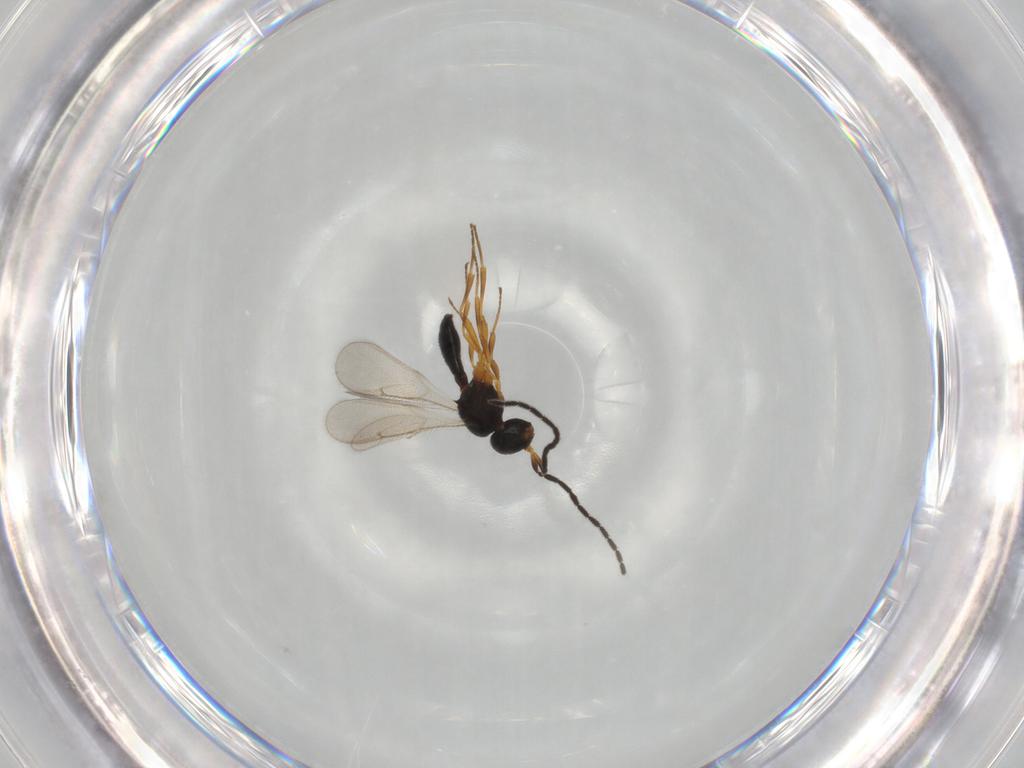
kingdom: Animalia
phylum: Arthropoda
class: Insecta
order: Hymenoptera
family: Scelionidae
